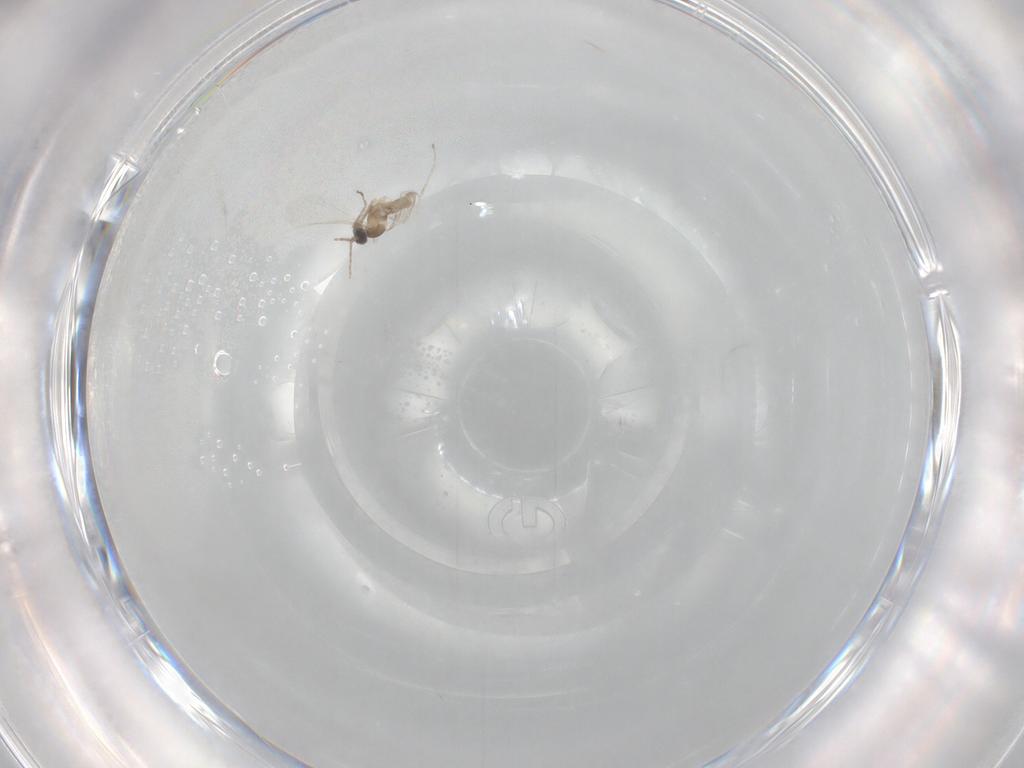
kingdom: Animalia
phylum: Arthropoda
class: Insecta
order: Diptera
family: Cecidomyiidae
